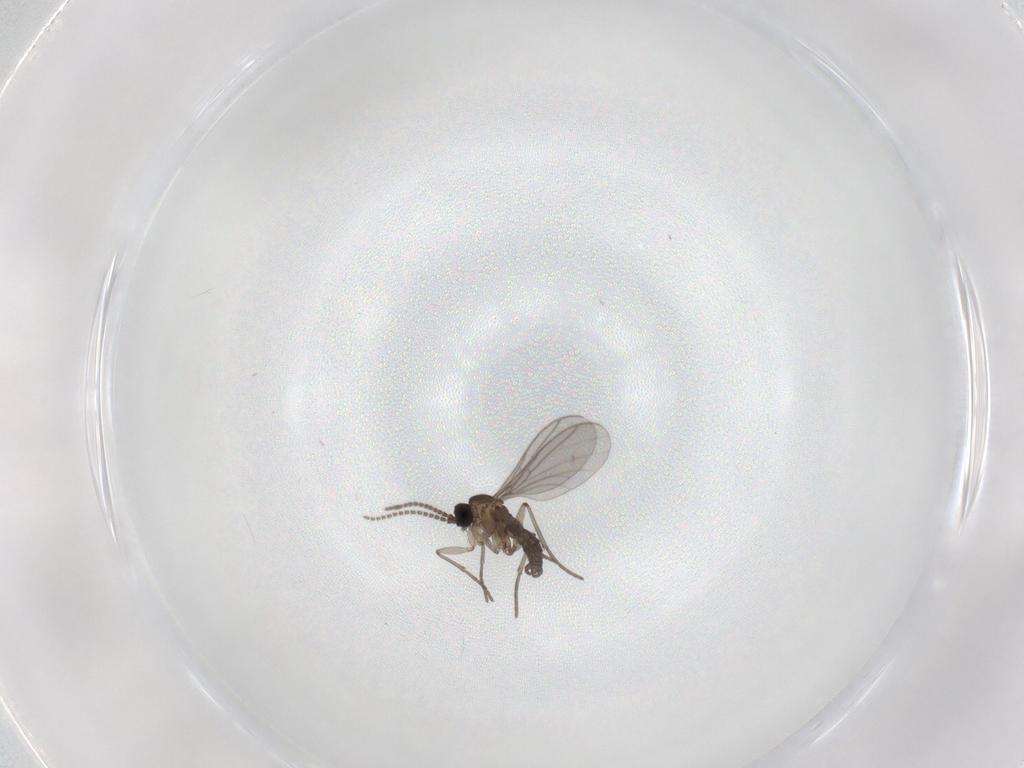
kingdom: Animalia
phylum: Arthropoda
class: Insecta
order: Diptera
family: Sciaridae
